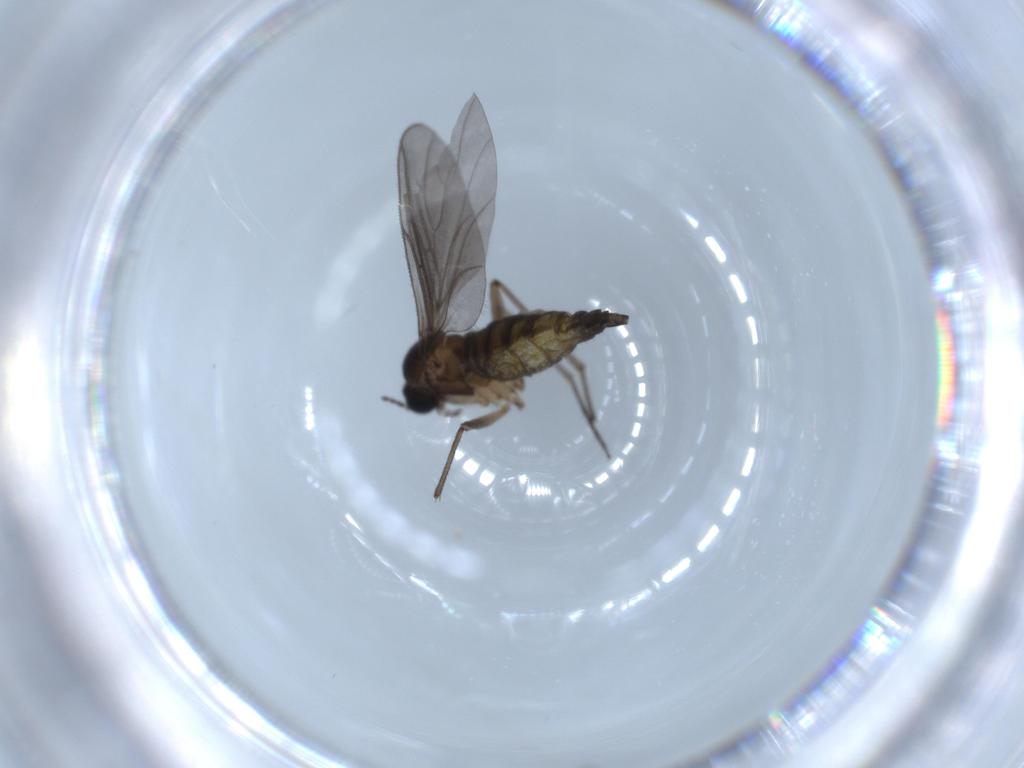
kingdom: Animalia
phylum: Arthropoda
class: Insecta
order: Diptera
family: Sciaridae
